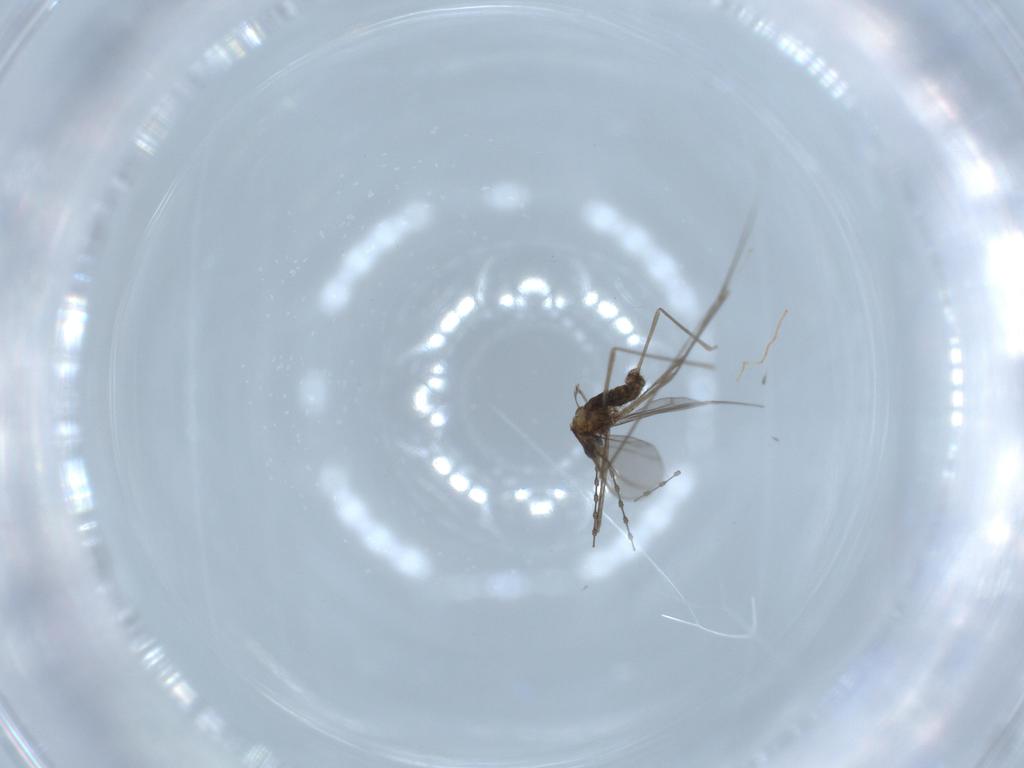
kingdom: Animalia
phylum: Arthropoda
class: Insecta
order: Diptera
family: Cecidomyiidae
